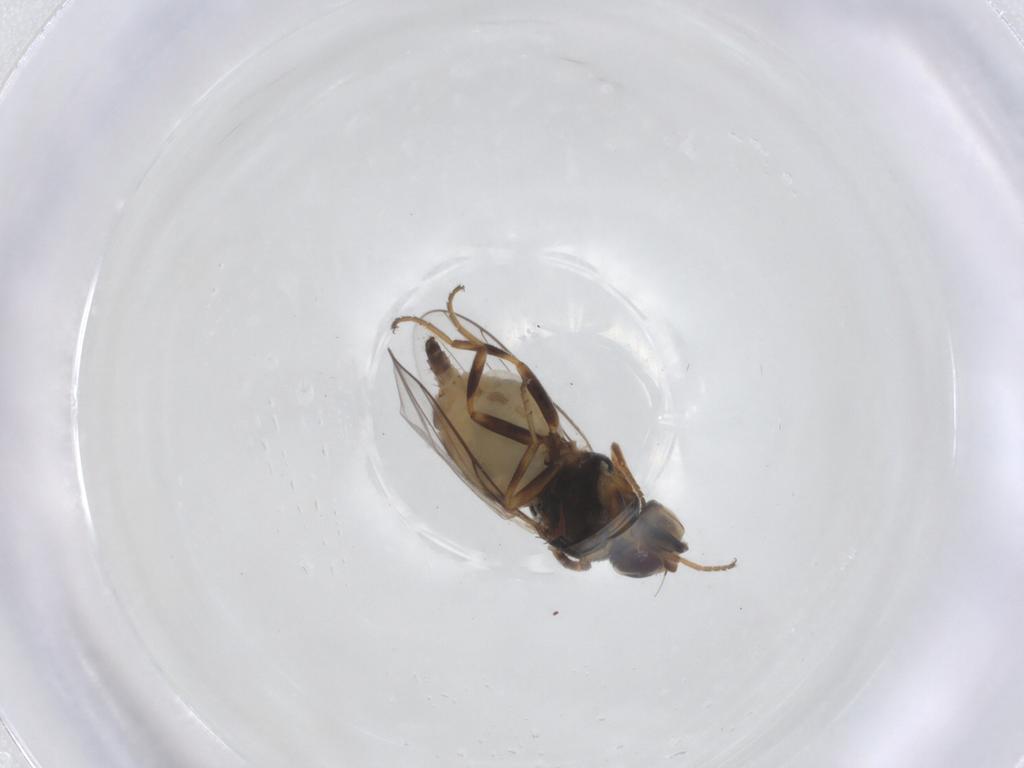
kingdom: Animalia
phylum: Arthropoda
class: Insecta
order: Diptera
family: Chloropidae
